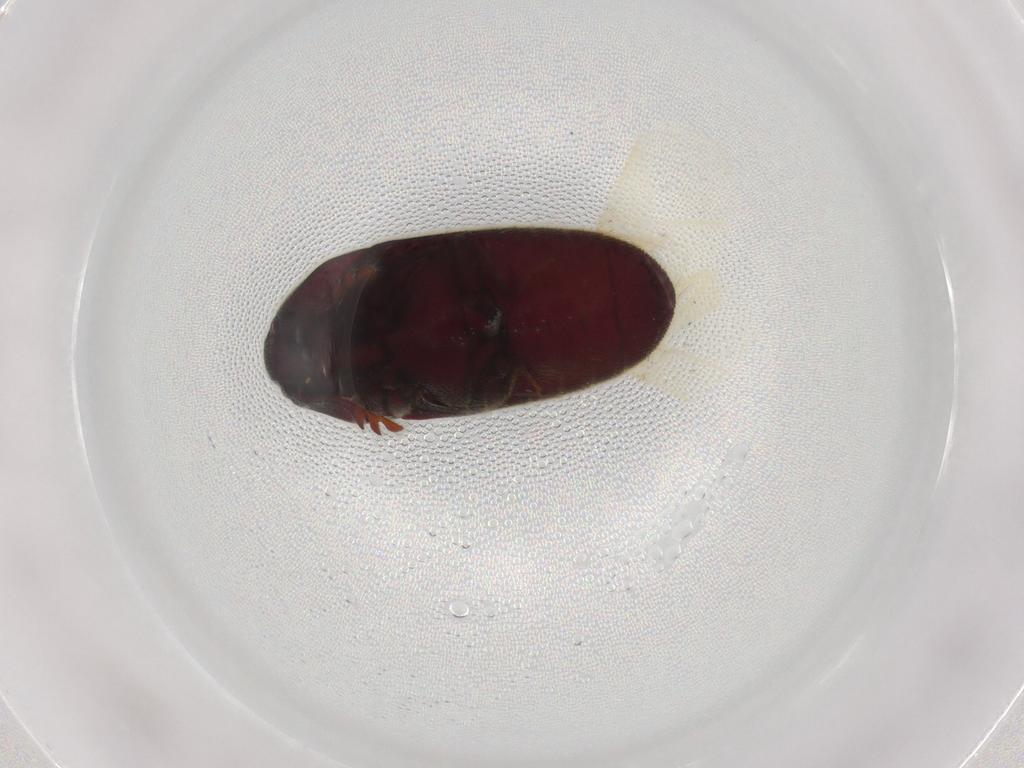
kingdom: Animalia
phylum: Arthropoda
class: Insecta
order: Coleoptera
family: Throscidae
